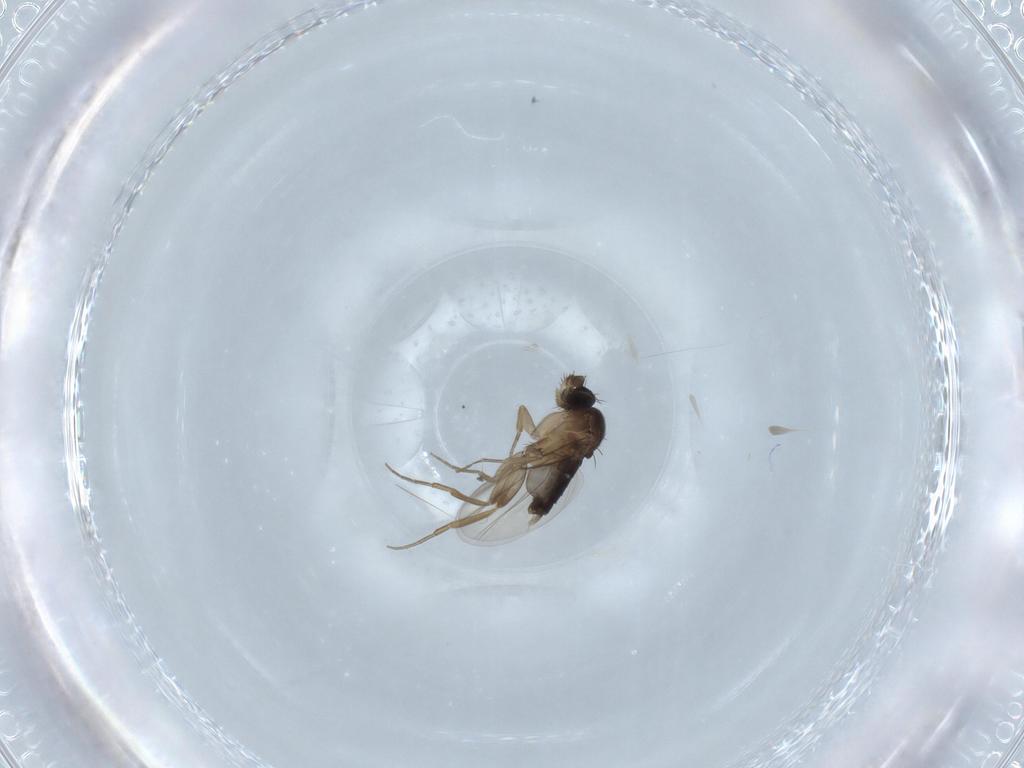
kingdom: Animalia
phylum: Arthropoda
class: Insecta
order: Diptera
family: Phoridae
